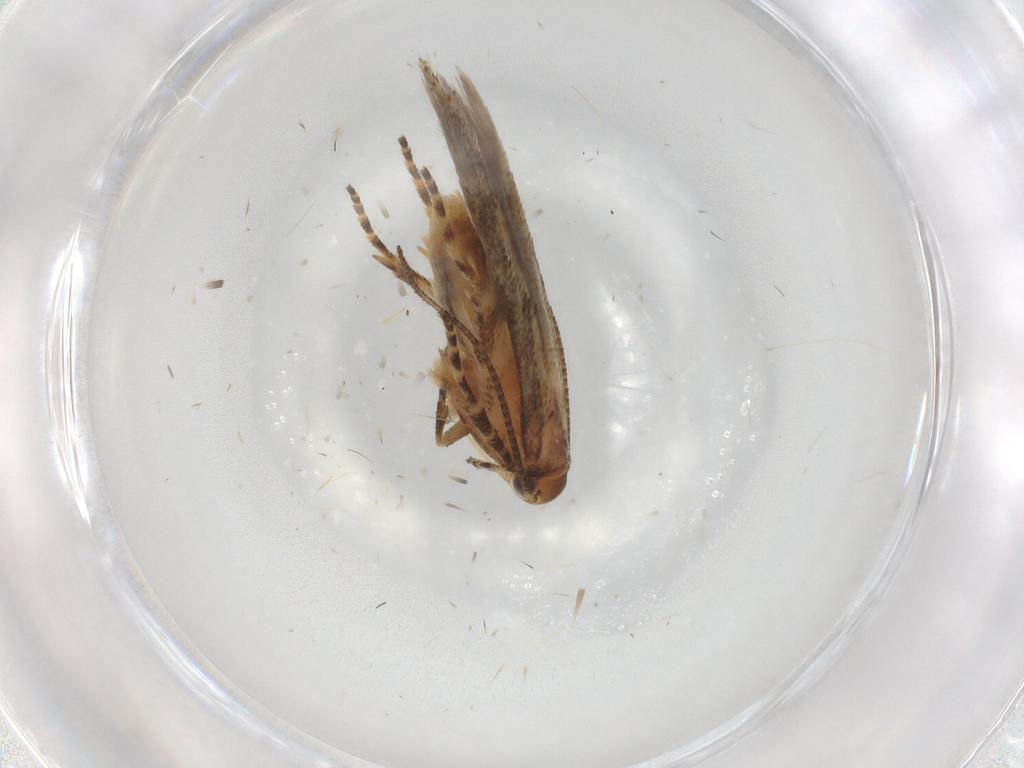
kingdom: Animalia
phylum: Arthropoda
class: Insecta
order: Lepidoptera
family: Gelechiidae
